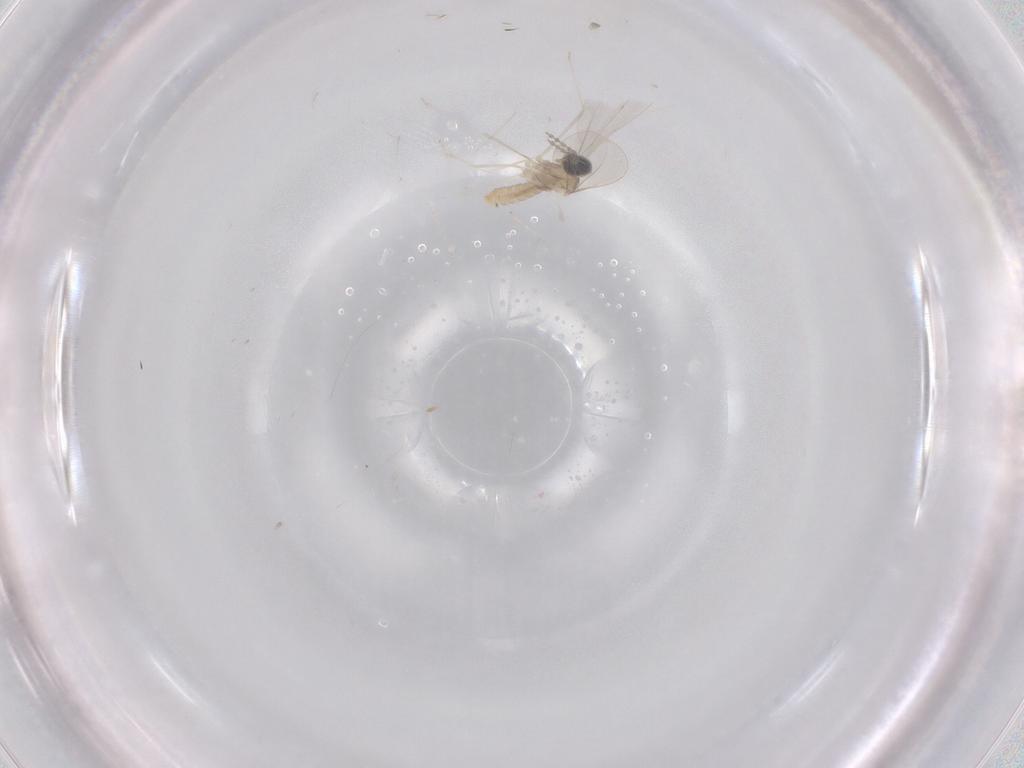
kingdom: Animalia
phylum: Arthropoda
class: Insecta
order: Diptera
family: Cecidomyiidae
